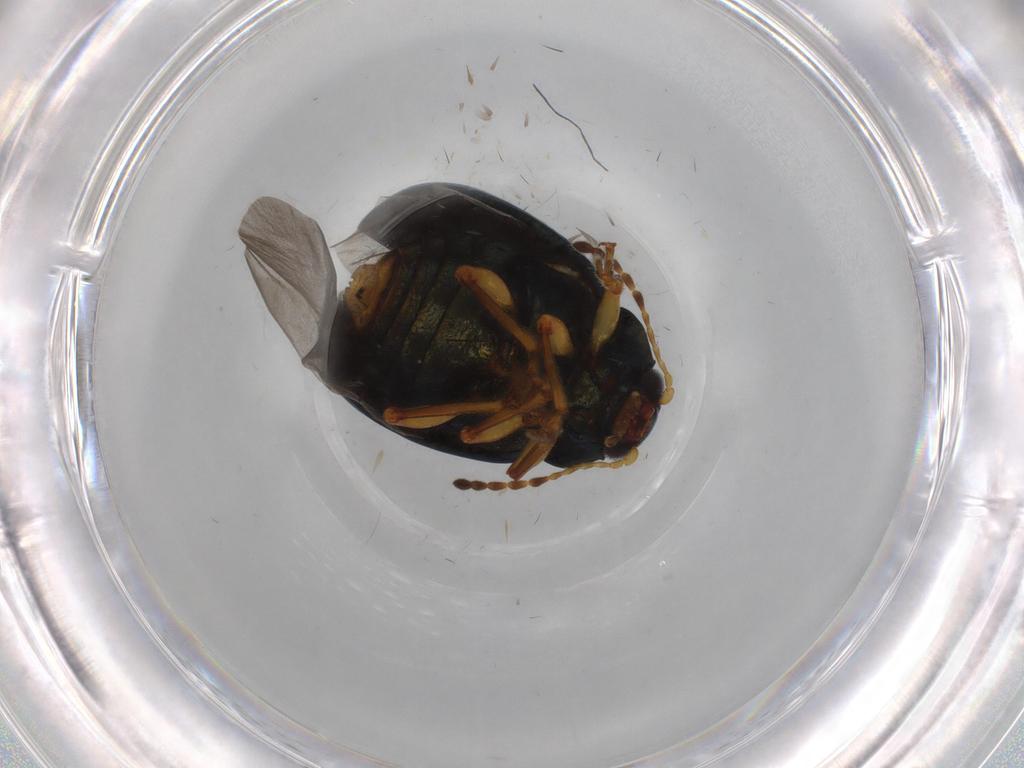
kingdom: Animalia
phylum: Arthropoda
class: Insecta
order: Coleoptera
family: Chrysomelidae
